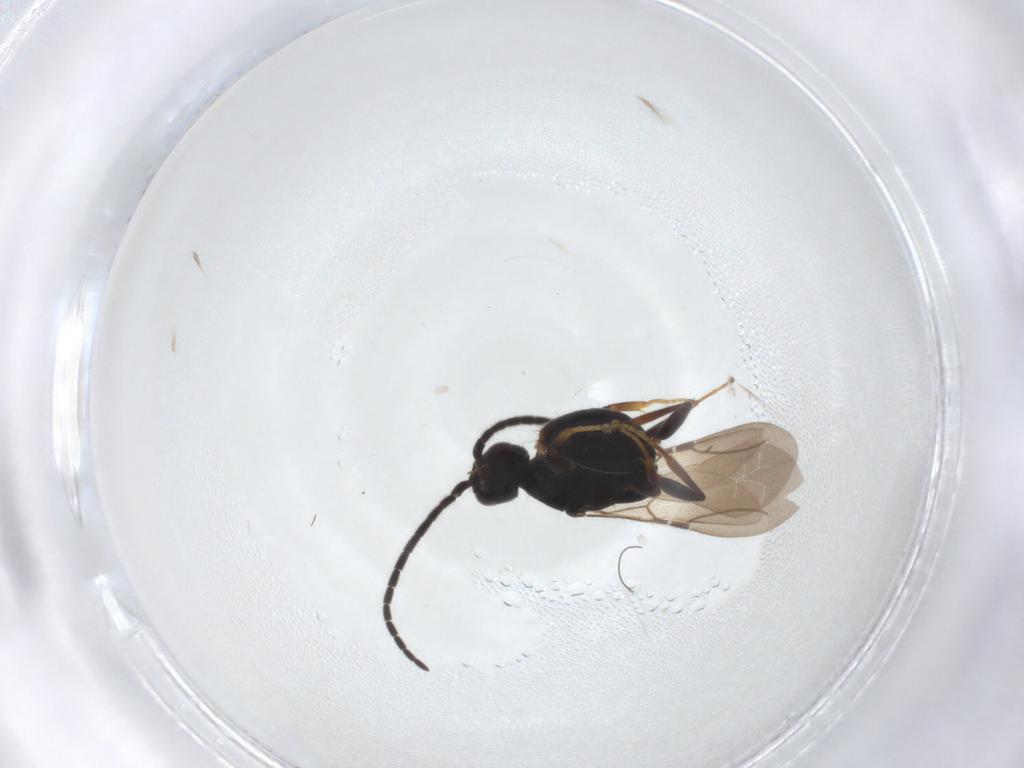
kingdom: Animalia
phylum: Arthropoda
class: Insecta
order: Hymenoptera
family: Bethylidae
